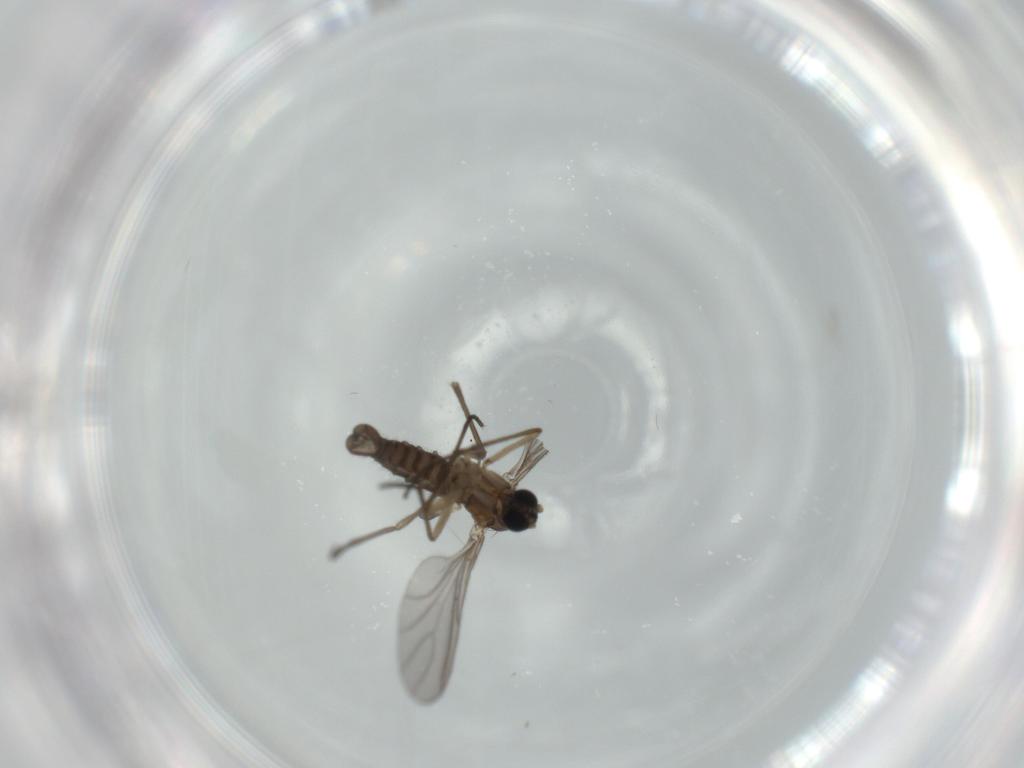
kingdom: Animalia
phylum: Arthropoda
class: Insecta
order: Diptera
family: Sciaridae
